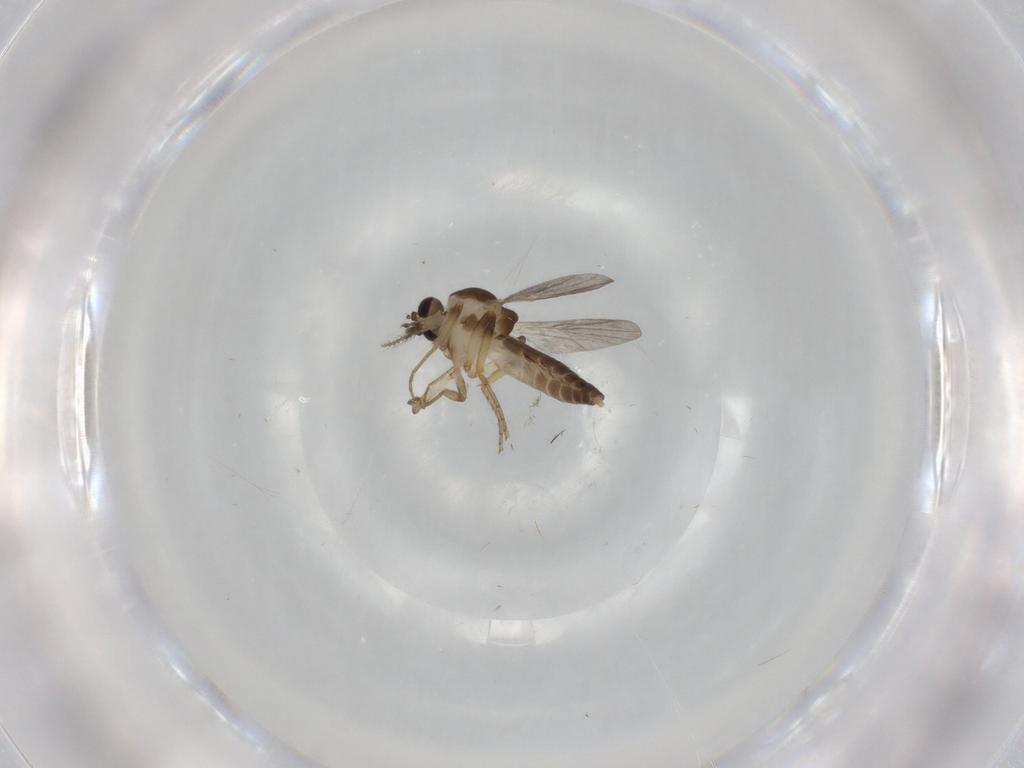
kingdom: Animalia
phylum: Arthropoda
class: Insecta
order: Diptera
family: Ceratopogonidae
